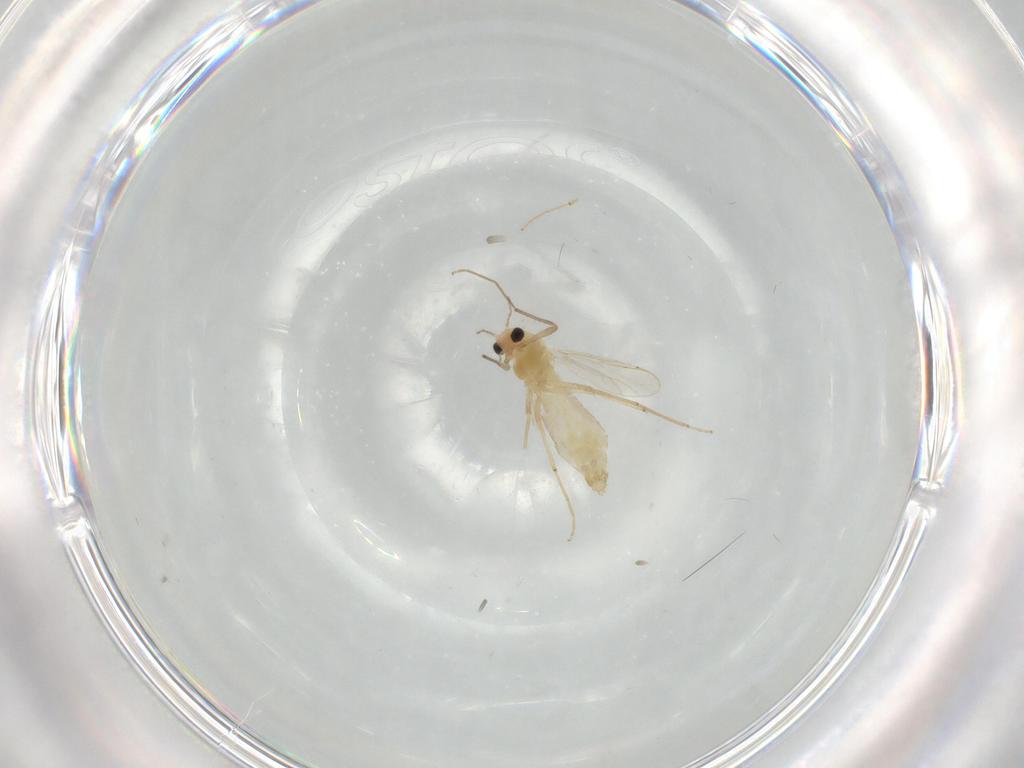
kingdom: Animalia
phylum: Arthropoda
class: Insecta
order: Diptera
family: Chironomidae
